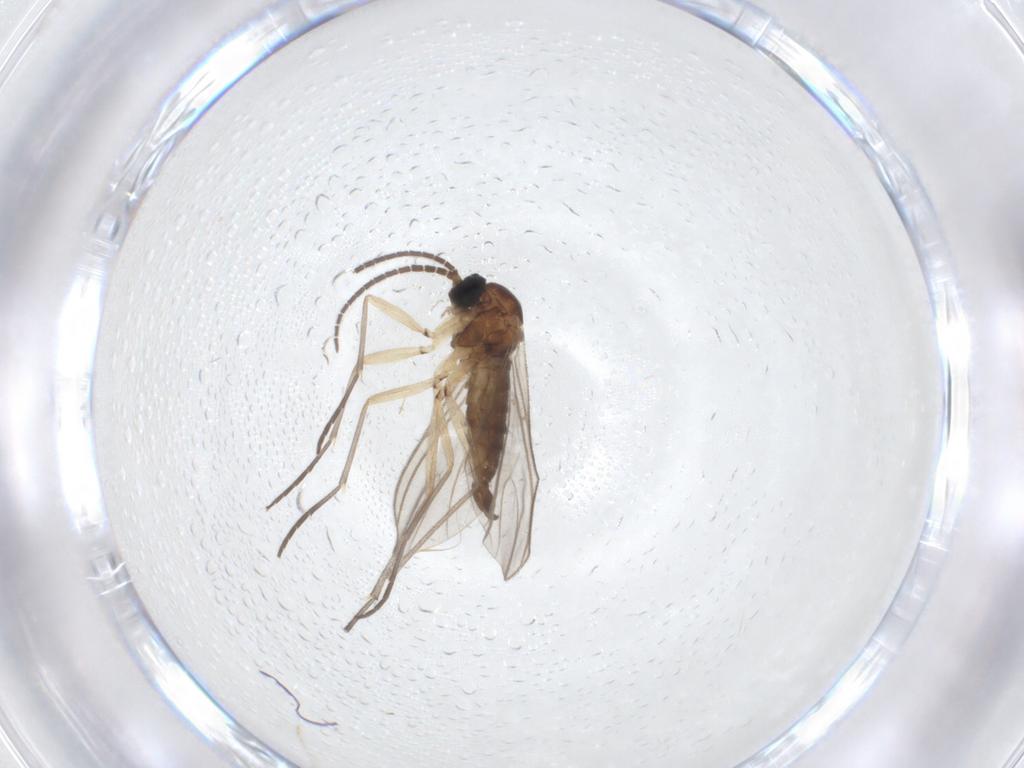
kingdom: Animalia
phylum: Arthropoda
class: Insecta
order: Diptera
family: Sciaridae
